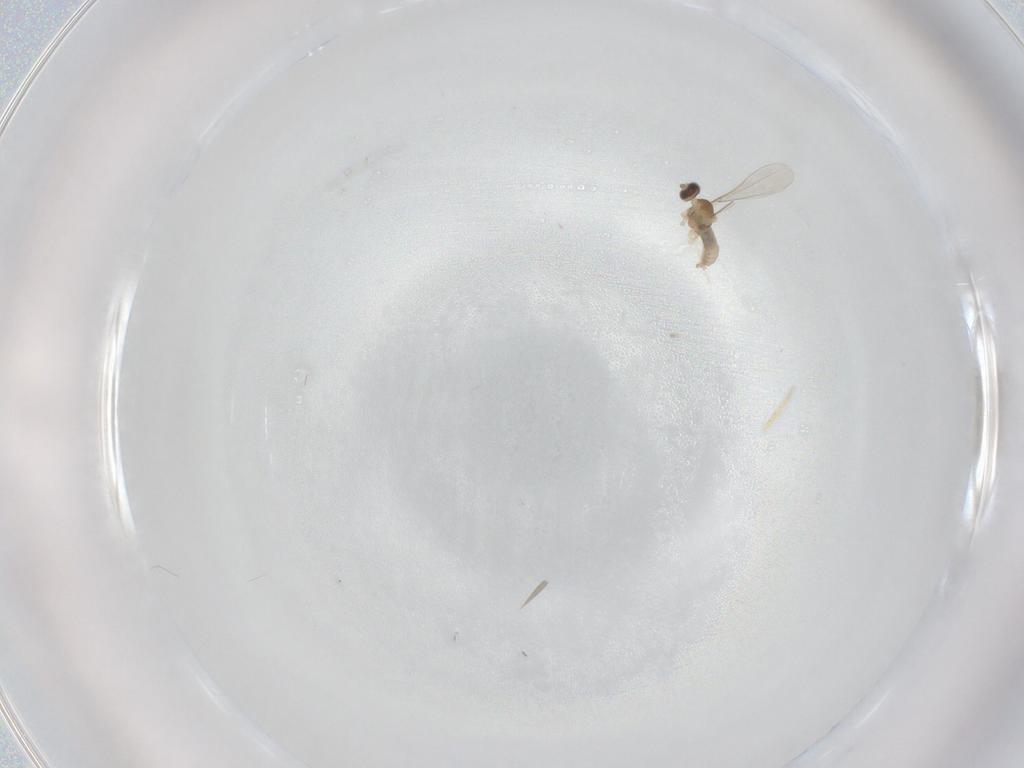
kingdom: Animalia
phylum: Arthropoda
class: Insecta
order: Diptera
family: Cecidomyiidae
